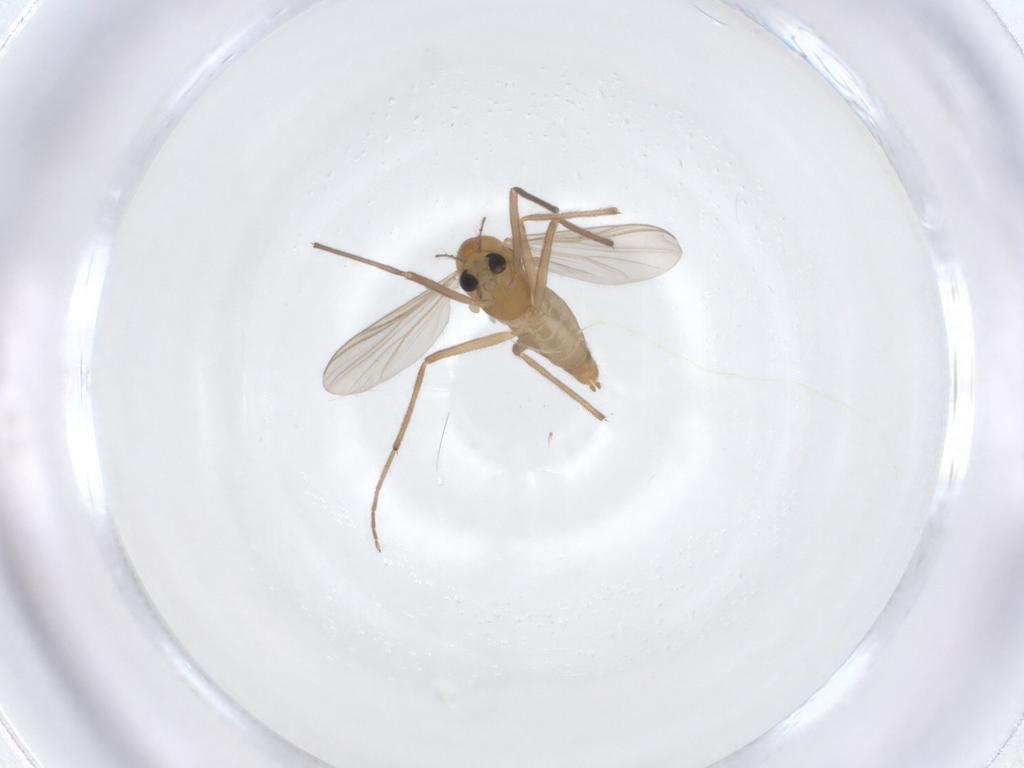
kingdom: Animalia
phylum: Arthropoda
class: Insecta
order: Diptera
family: Chironomidae
